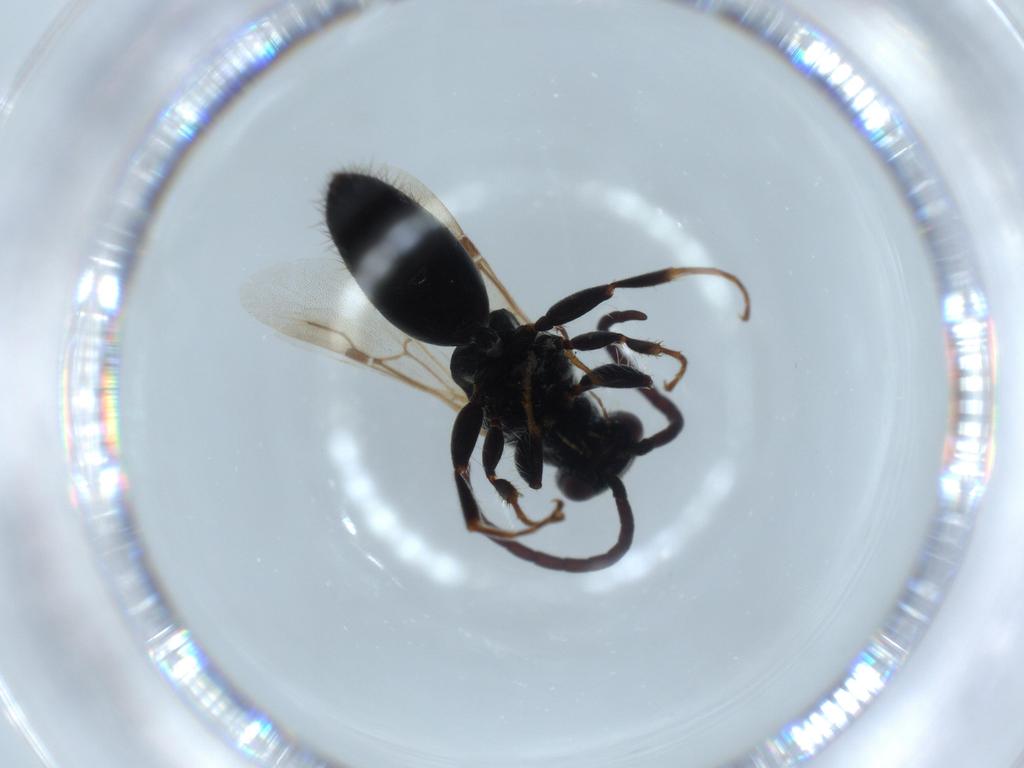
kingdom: Animalia
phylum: Arthropoda
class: Insecta
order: Hymenoptera
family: Bethylidae
